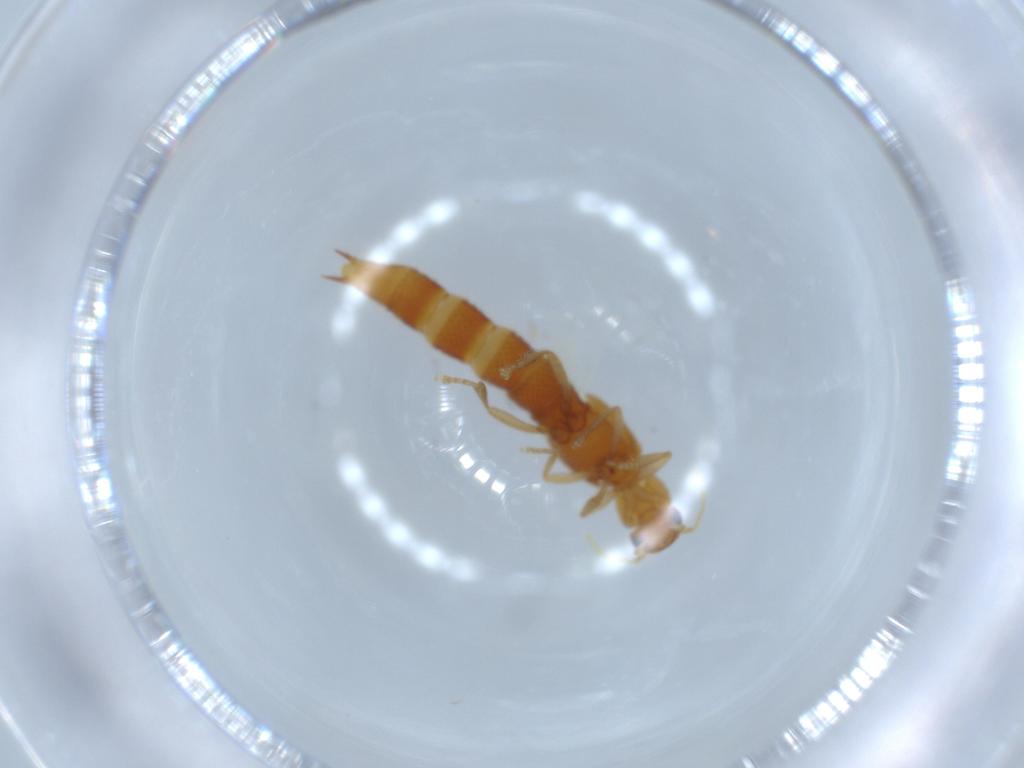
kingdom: Animalia
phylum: Arthropoda
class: Insecta
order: Coleoptera
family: Staphylinidae
